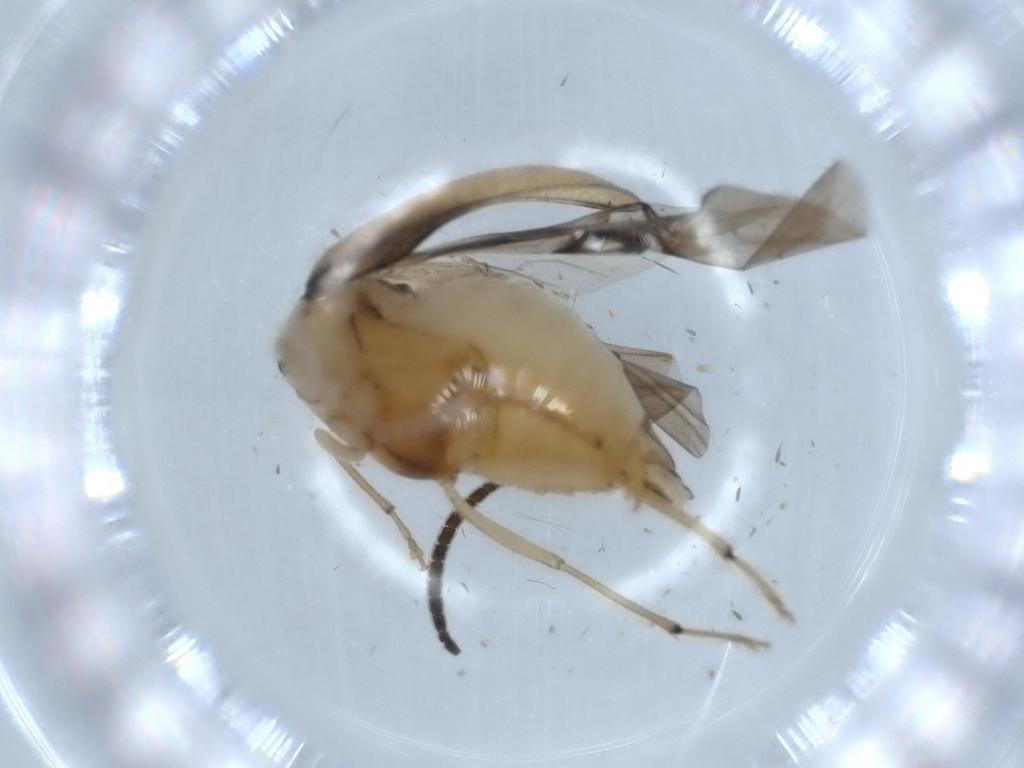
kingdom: Animalia
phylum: Arthropoda
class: Insecta
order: Coleoptera
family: Chrysomelidae
